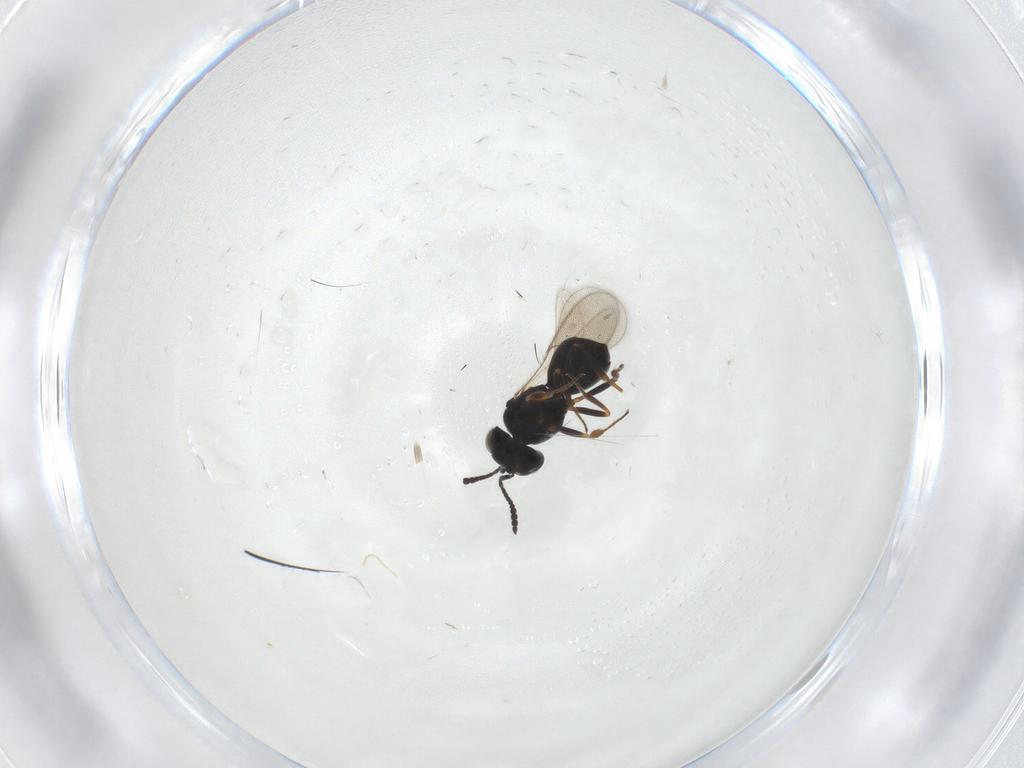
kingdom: Animalia
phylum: Arthropoda
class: Insecta
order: Hymenoptera
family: Scelionidae
